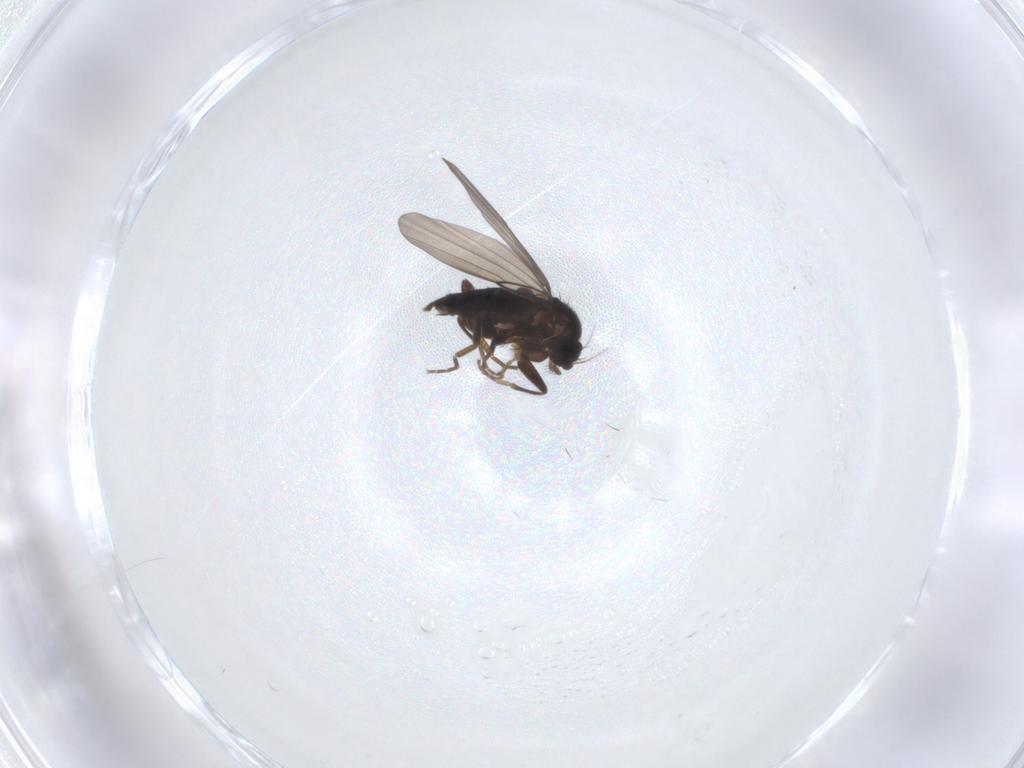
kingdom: Animalia
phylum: Arthropoda
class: Insecta
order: Diptera
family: Phoridae
